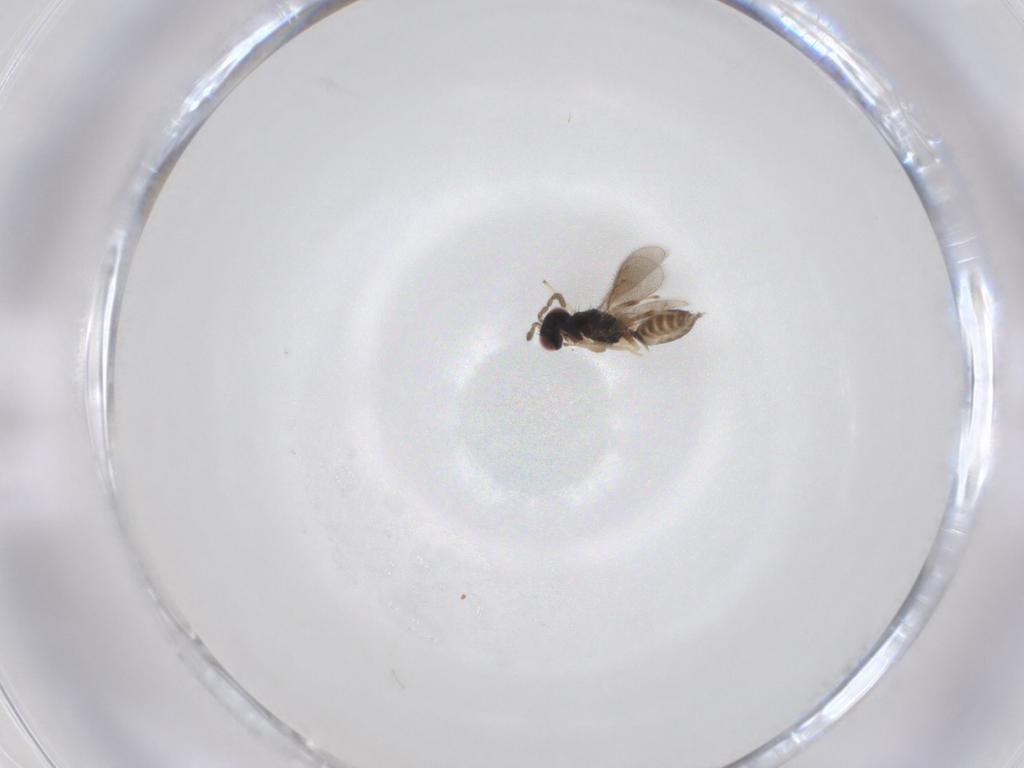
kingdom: Animalia
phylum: Arthropoda
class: Insecta
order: Hymenoptera
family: Eulophidae
